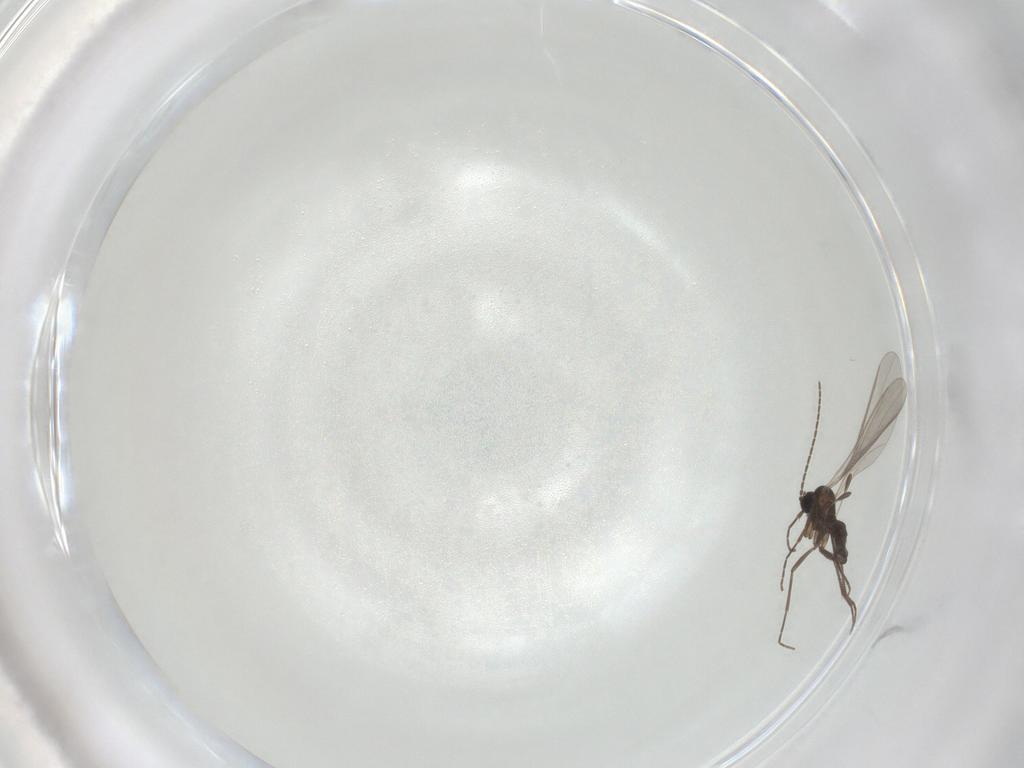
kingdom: Animalia
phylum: Arthropoda
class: Insecta
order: Diptera
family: Sciaridae
